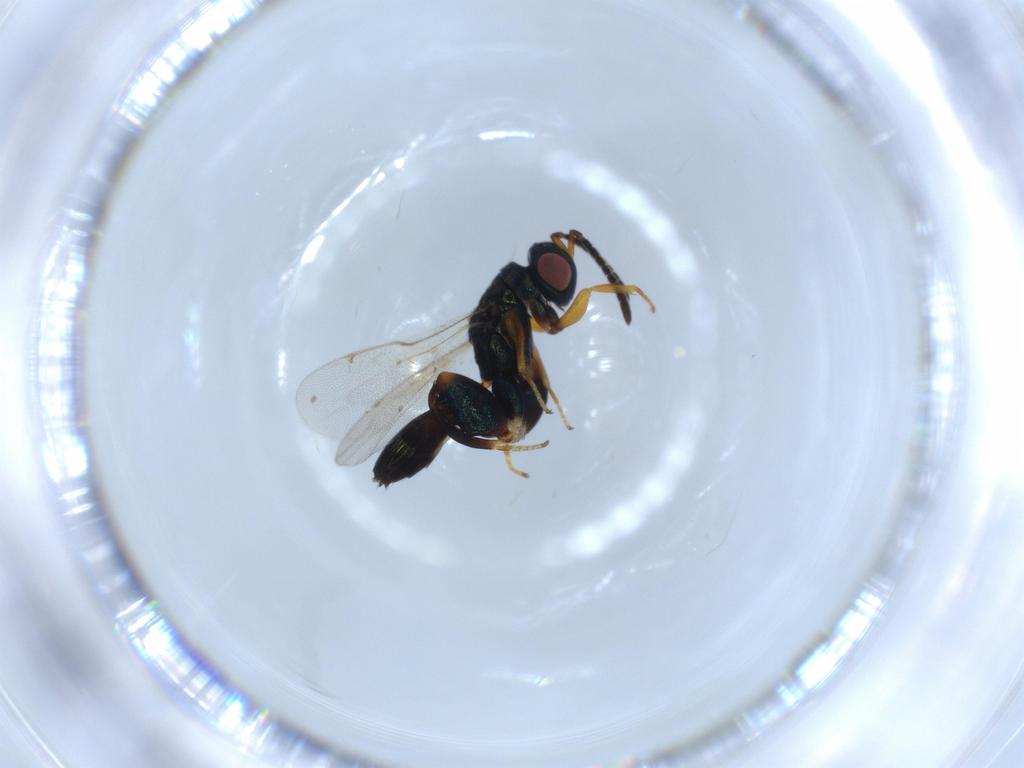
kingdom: Animalia
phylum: Arthropoda
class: Insecta
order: Hymenoptera
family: Torymidae
